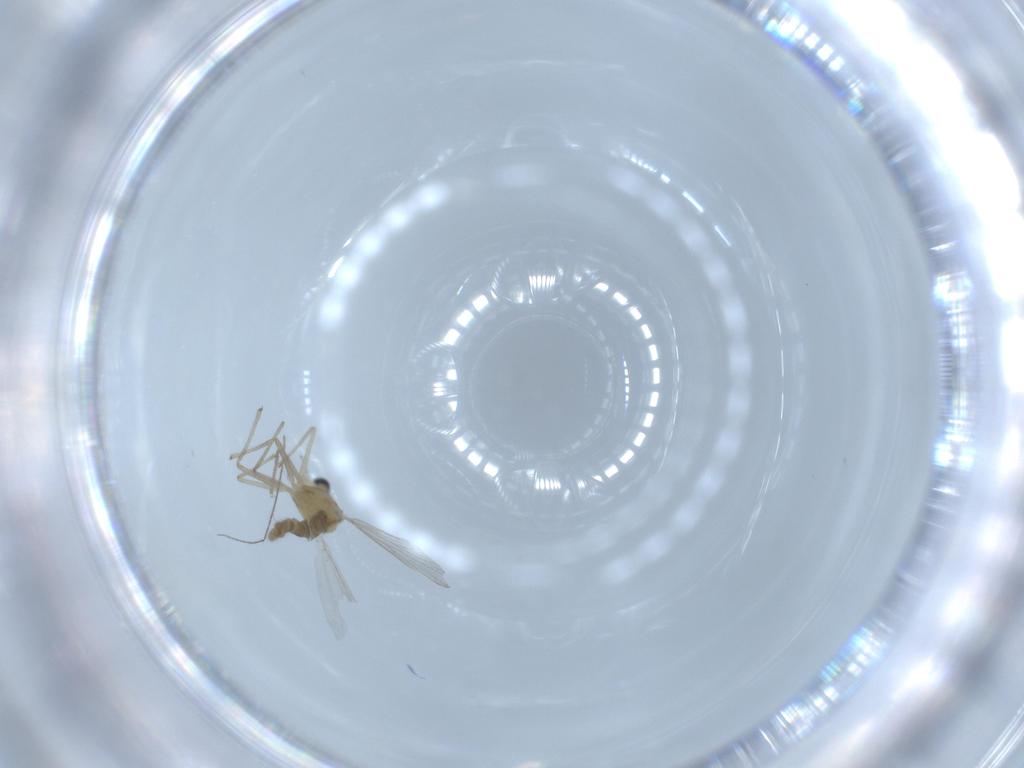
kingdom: Animalia
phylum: Arthropoda
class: Insecta
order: Diptera
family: Chironomidae
